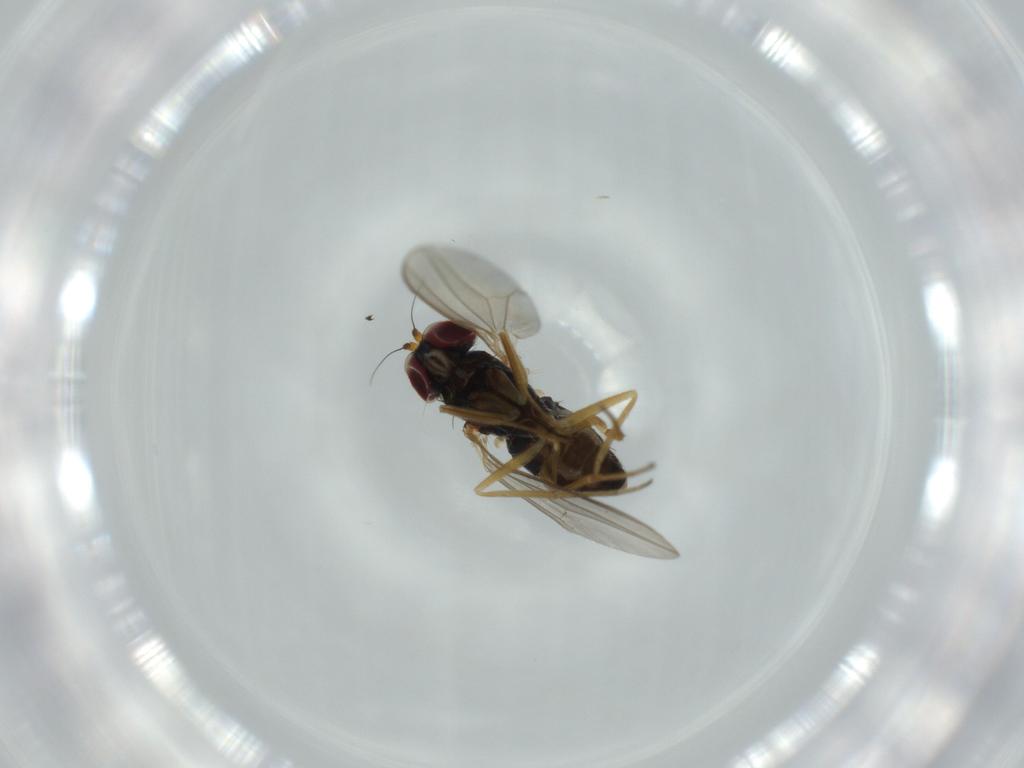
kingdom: Animalia
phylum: Arthropoda
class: Insecta
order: Diptera
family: Dolichopodidae
